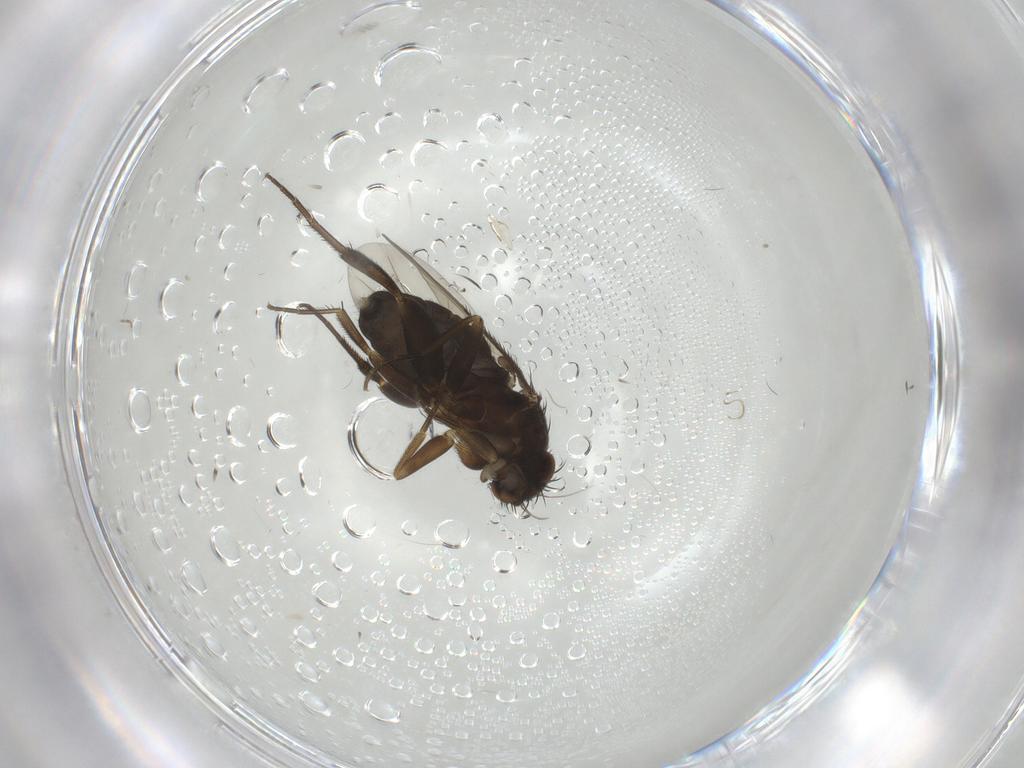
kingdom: Animalia
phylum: Arthropoda
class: Insecta
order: Diptera
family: Phoridae
